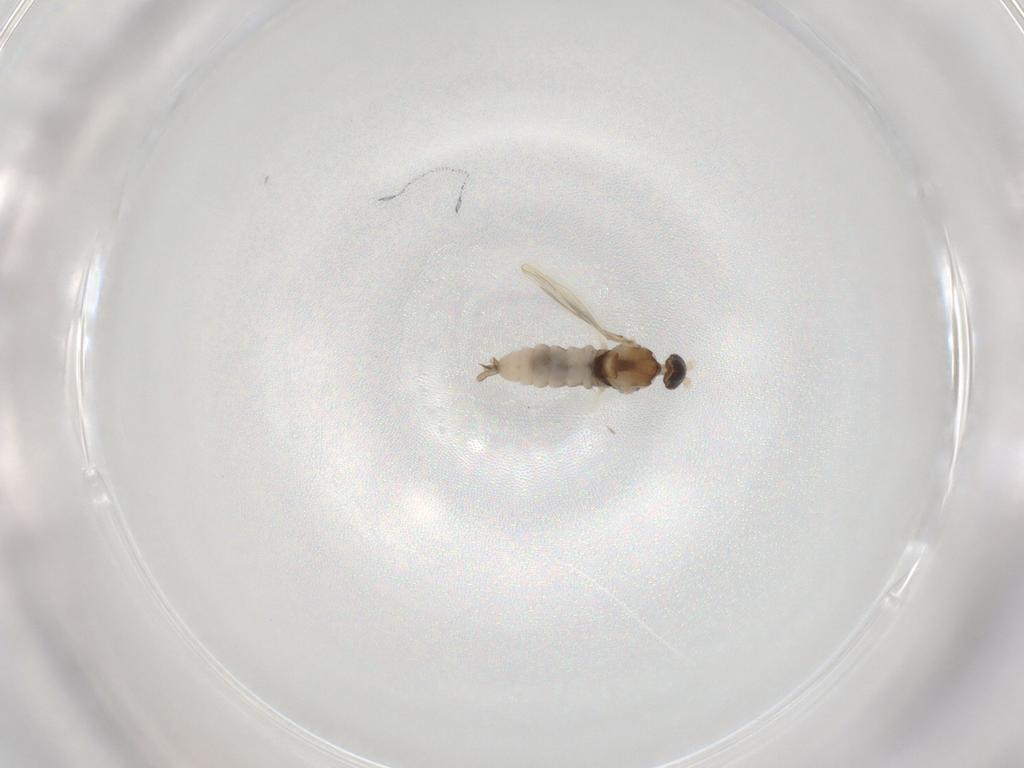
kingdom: Animalia
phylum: Arthropoda
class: Insecta
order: Diptera
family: Cecidomyiidae
